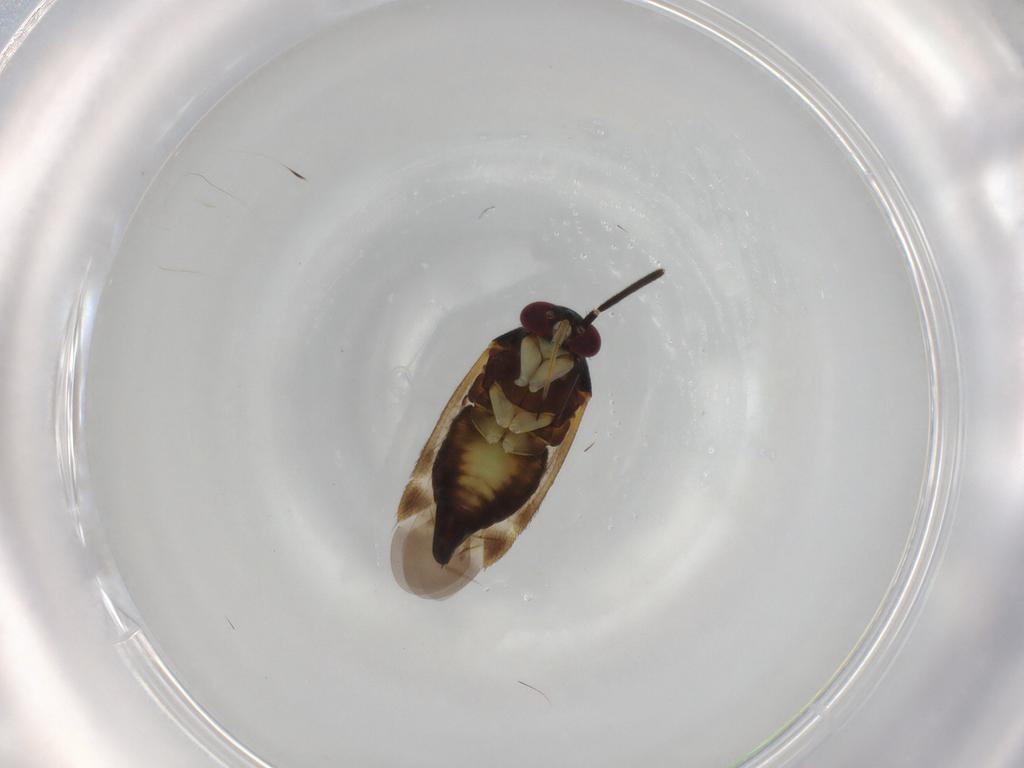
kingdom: Animalia
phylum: Arthropoda
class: Insecta
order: Hemiptera
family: Miridae
